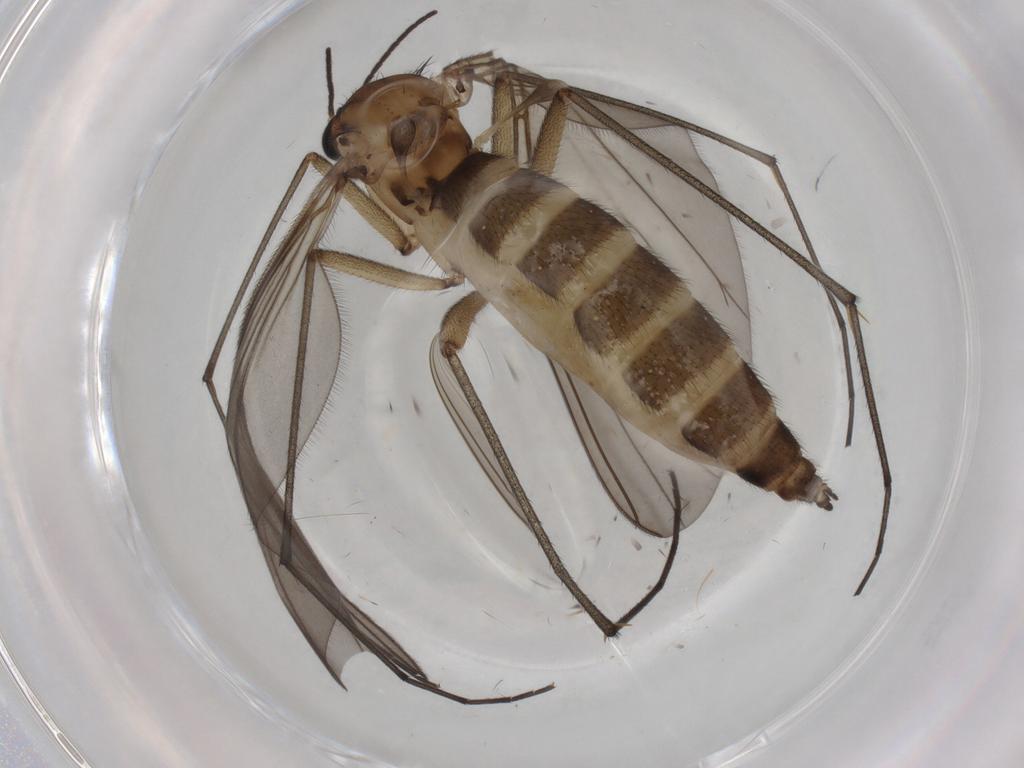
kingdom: Animalia
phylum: Arthropoda
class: Insecta
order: Diptera
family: Sciaridae
